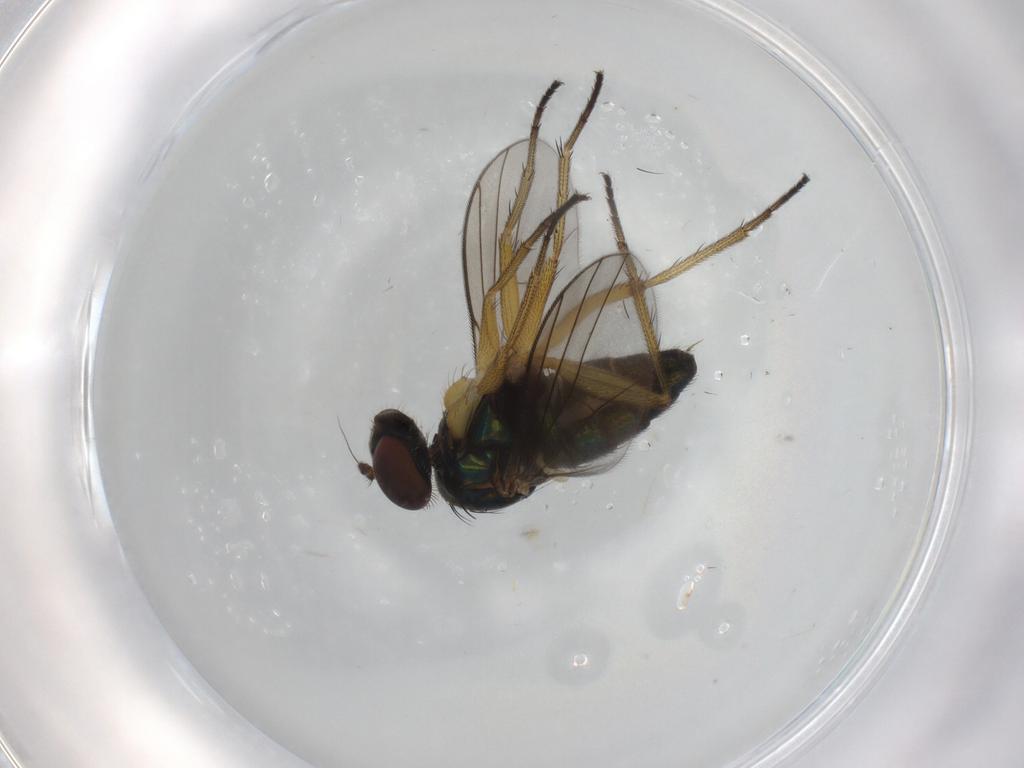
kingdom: Animalia
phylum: Arthropoda
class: Insecta
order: Diptera
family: Dolichopodidae
